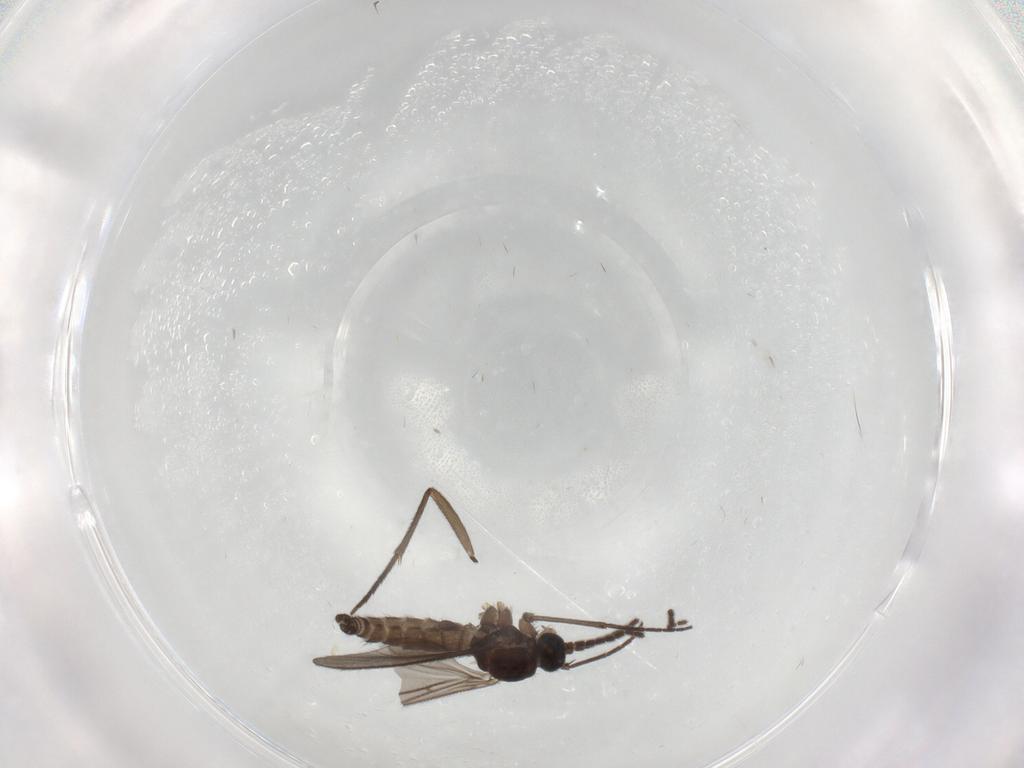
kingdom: Animalia
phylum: Arthropoda
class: Insecta
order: Diptera
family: Sciaridae
